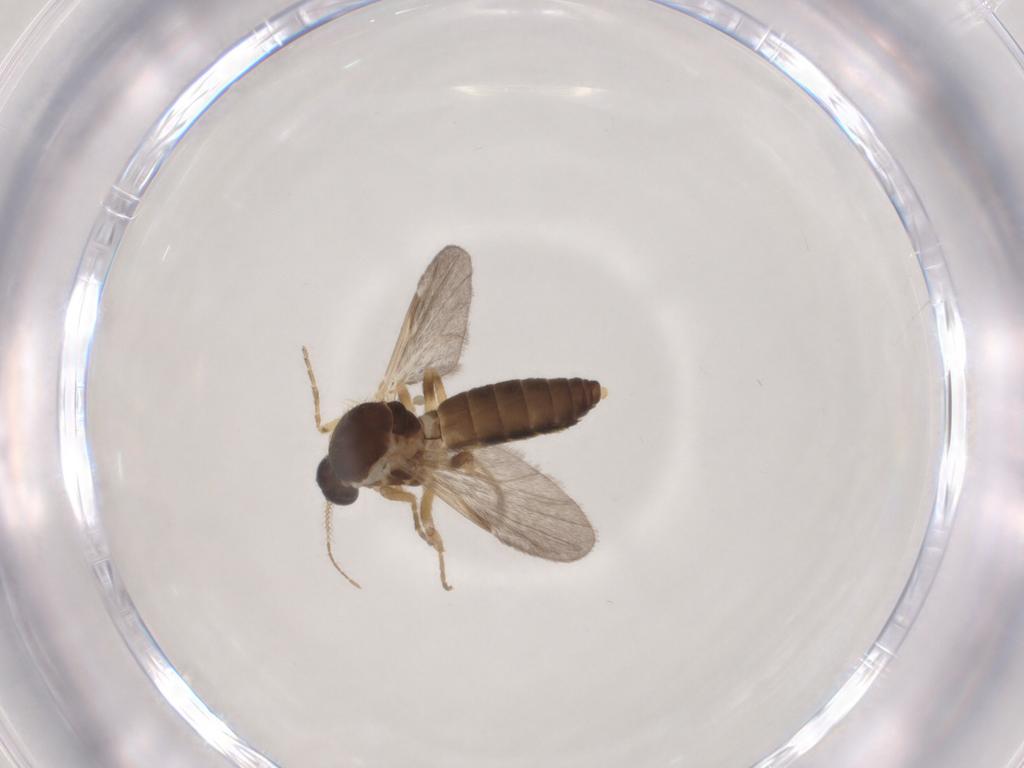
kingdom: Animalia
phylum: Arthropoda
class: Insecta
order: Diptera
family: Ceratopogonidae
